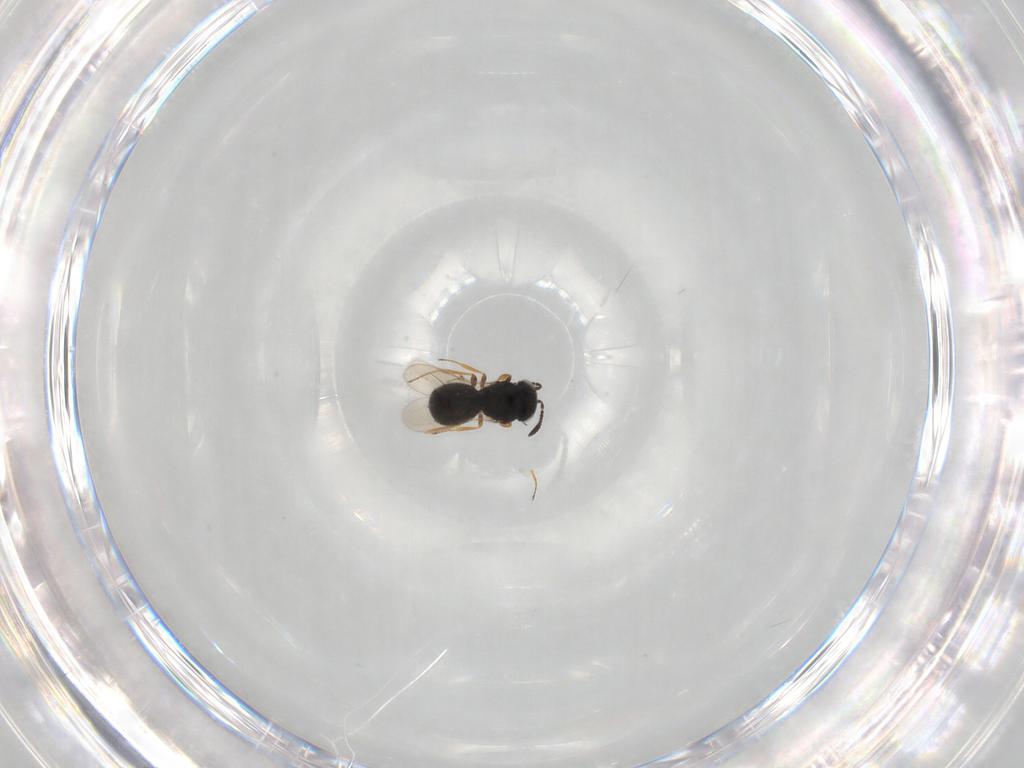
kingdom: Animalia
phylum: Arthropoda
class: Insecta
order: Hymenoptera
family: Scelionidae
